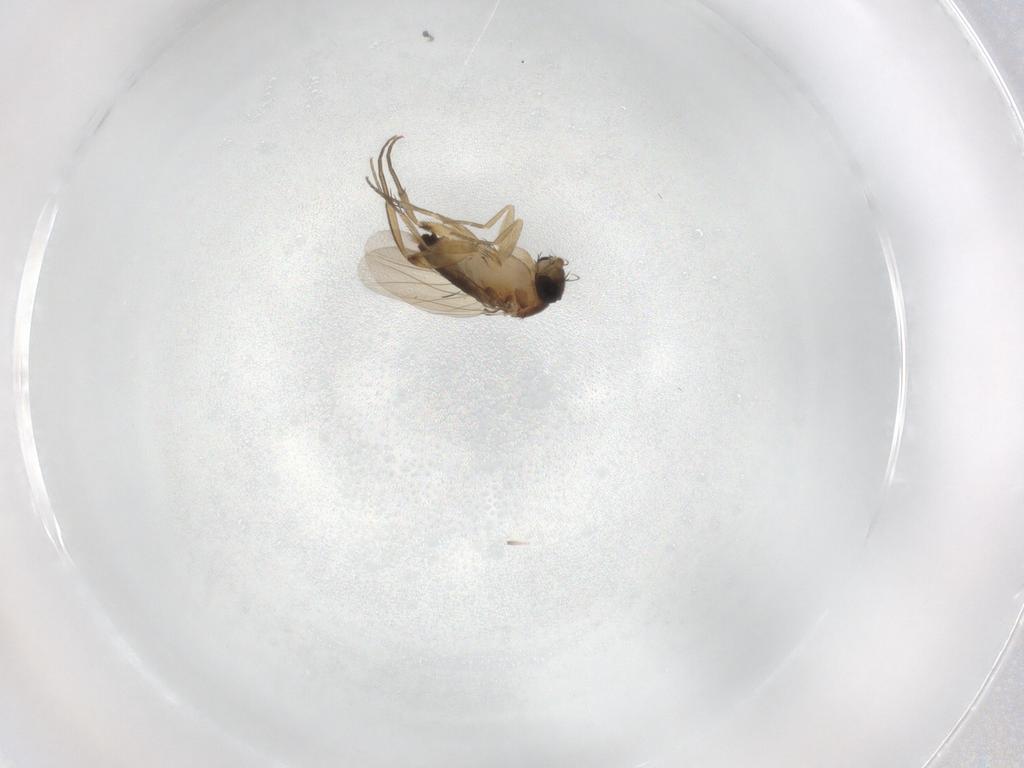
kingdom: Animalia
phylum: Arthropoda
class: Insecta
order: Diptera
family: Phoridae
